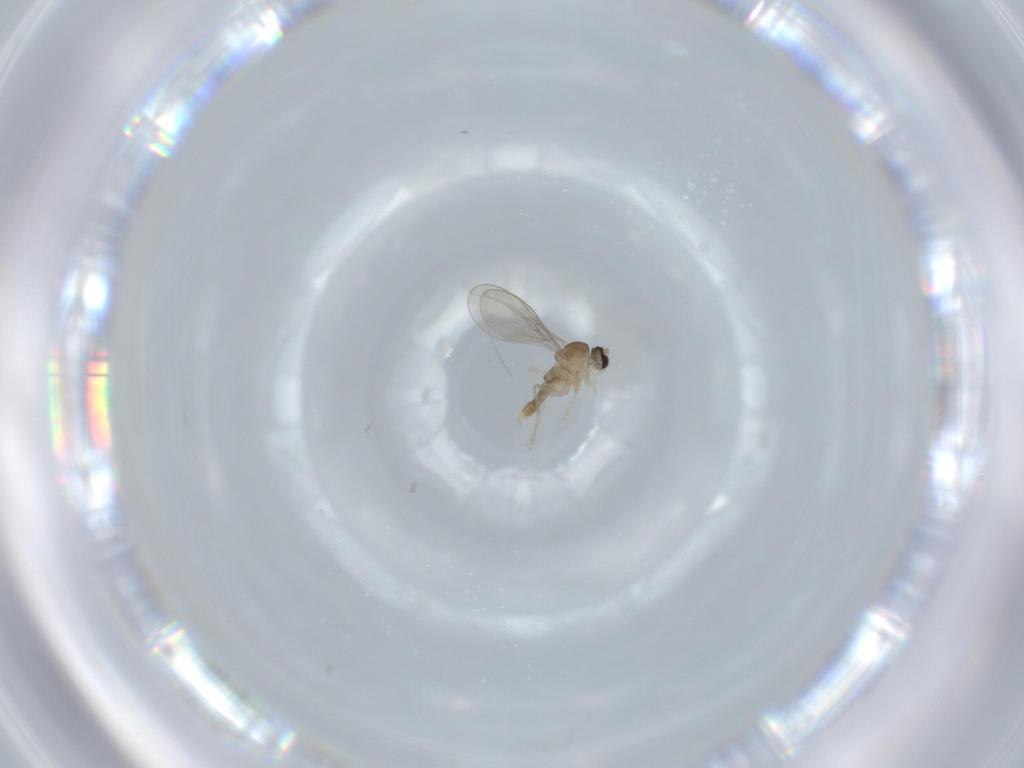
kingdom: Animalia
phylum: Arthropoda
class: Insecta
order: Diptera
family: Cecidomyiidae
